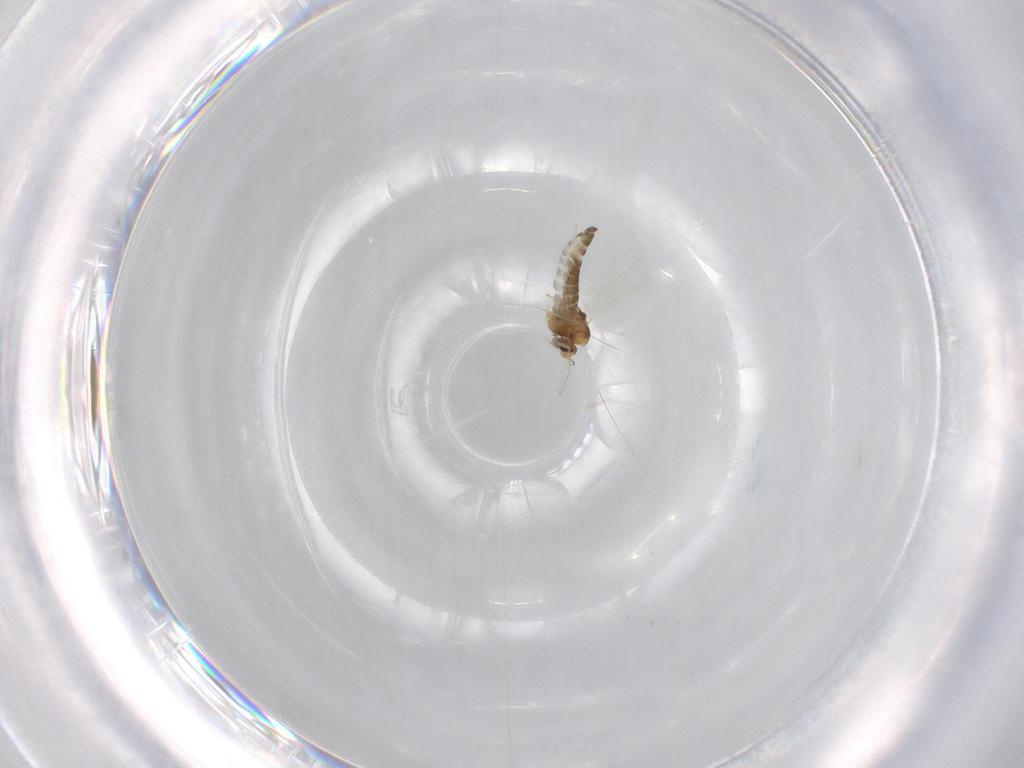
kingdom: Animalia
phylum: Arthropoda
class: Insecta
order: Diptera
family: Chironomidae
